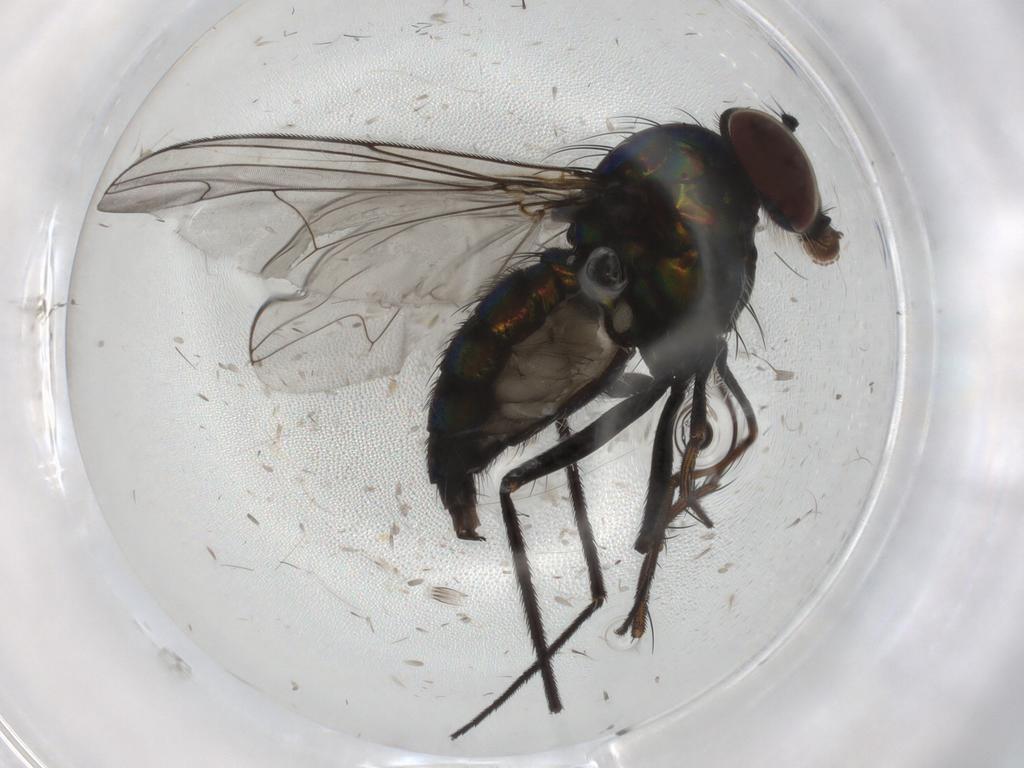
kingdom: Animalia
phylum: Arthropoda
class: Insecta
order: Diptera
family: Dolichopodidae
